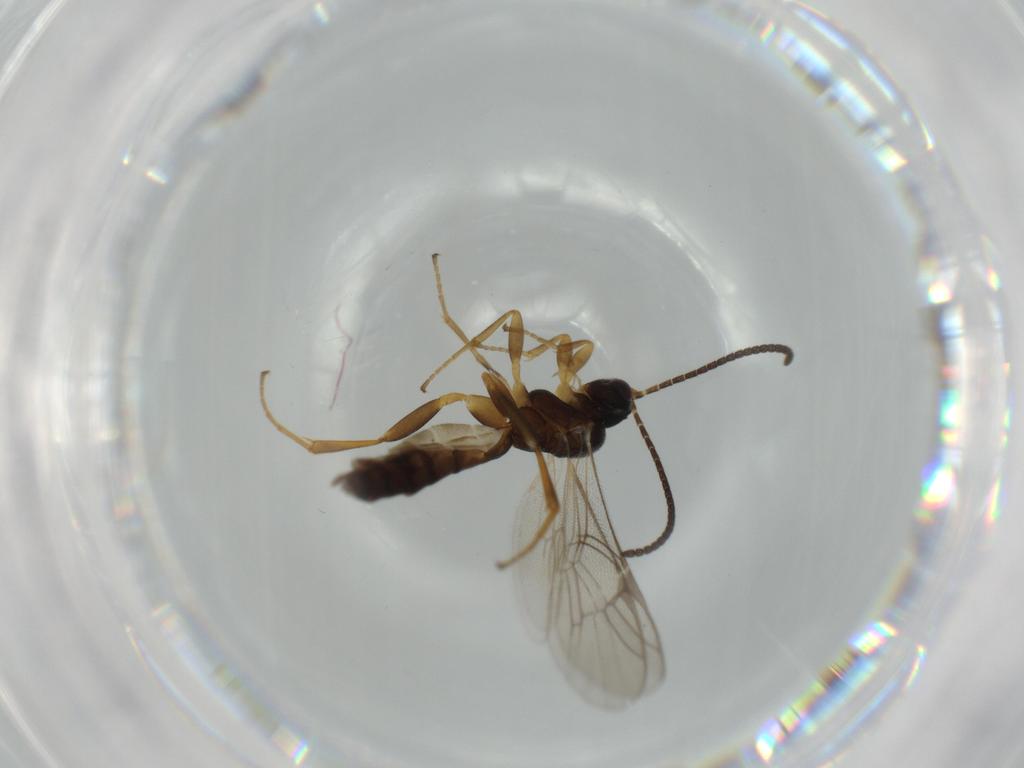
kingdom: Animalia
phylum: Arthropoda
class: Insecta
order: Hymenoptera
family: Ichneumonidae
